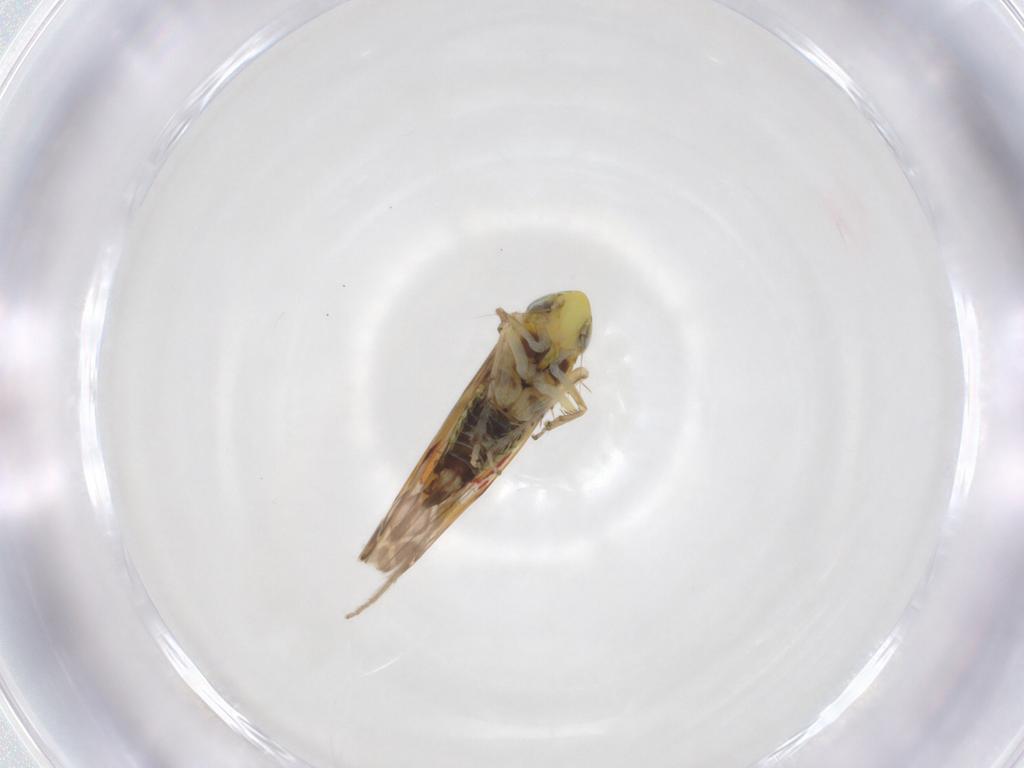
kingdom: Animalia
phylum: Arthropoda
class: Insecta
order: Hemiptera
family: Cicadellidae
